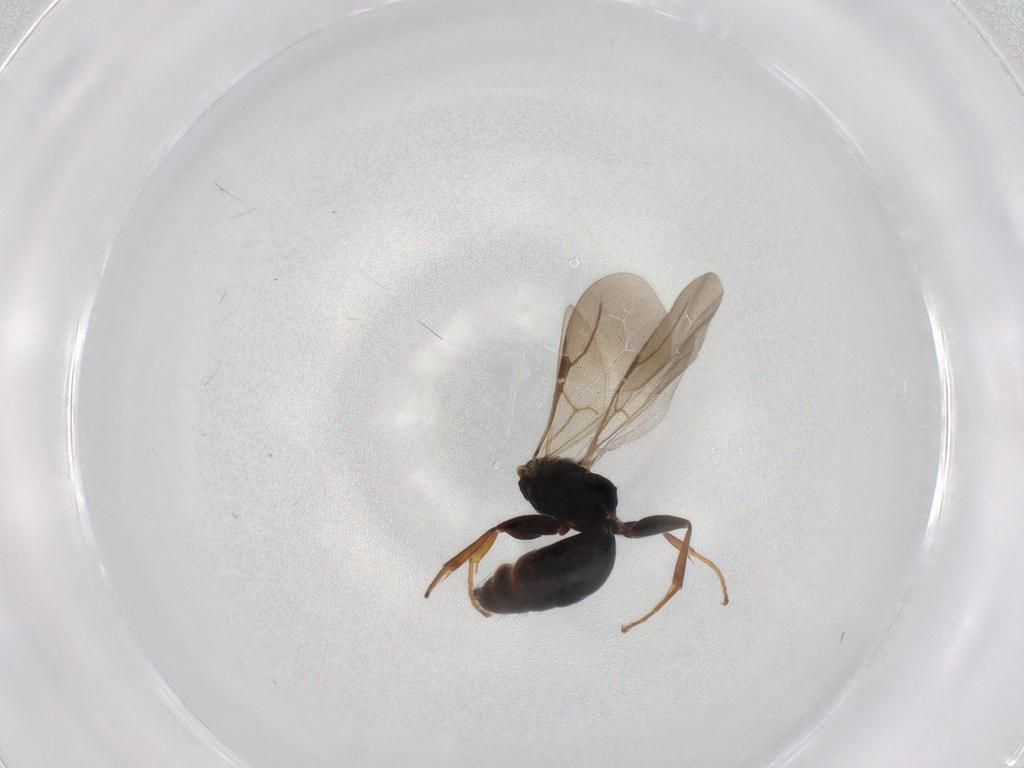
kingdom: Animalia
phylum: Arthropoda
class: Insecta
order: Hymenoptera
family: Bethylidae
